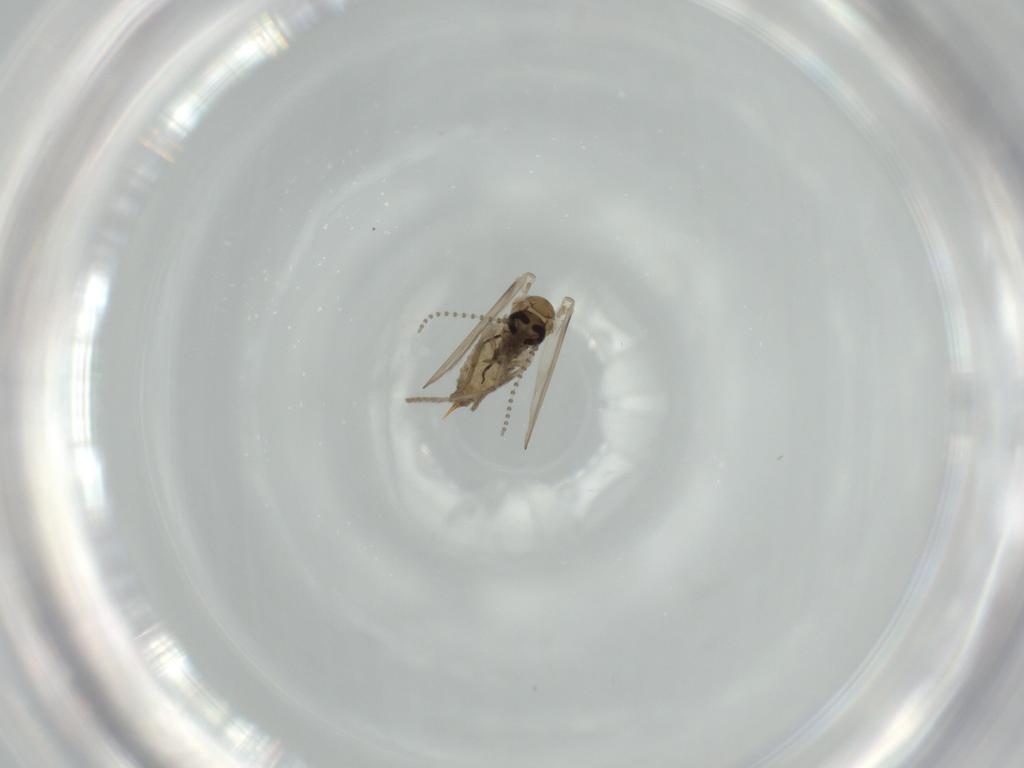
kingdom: Animalia
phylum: Arthropoda
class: Insecta
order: Diptera
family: Psychodidae
